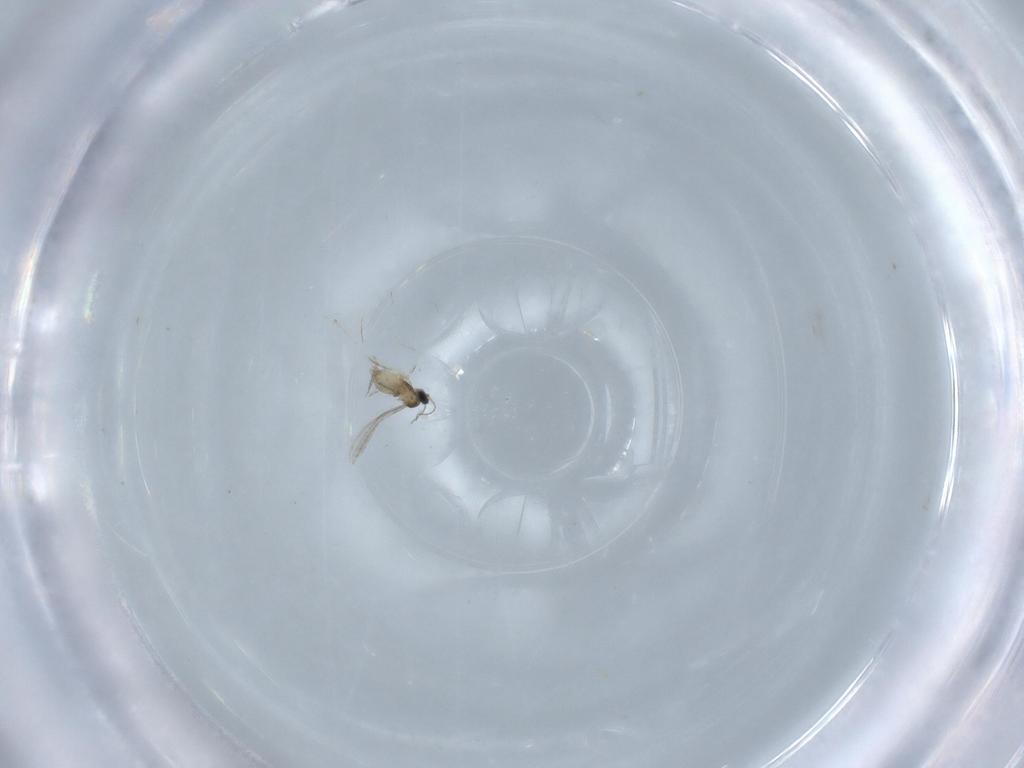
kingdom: Animalia
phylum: Arthropoda
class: Insecta
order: Diptera
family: Cecidomyiidae
